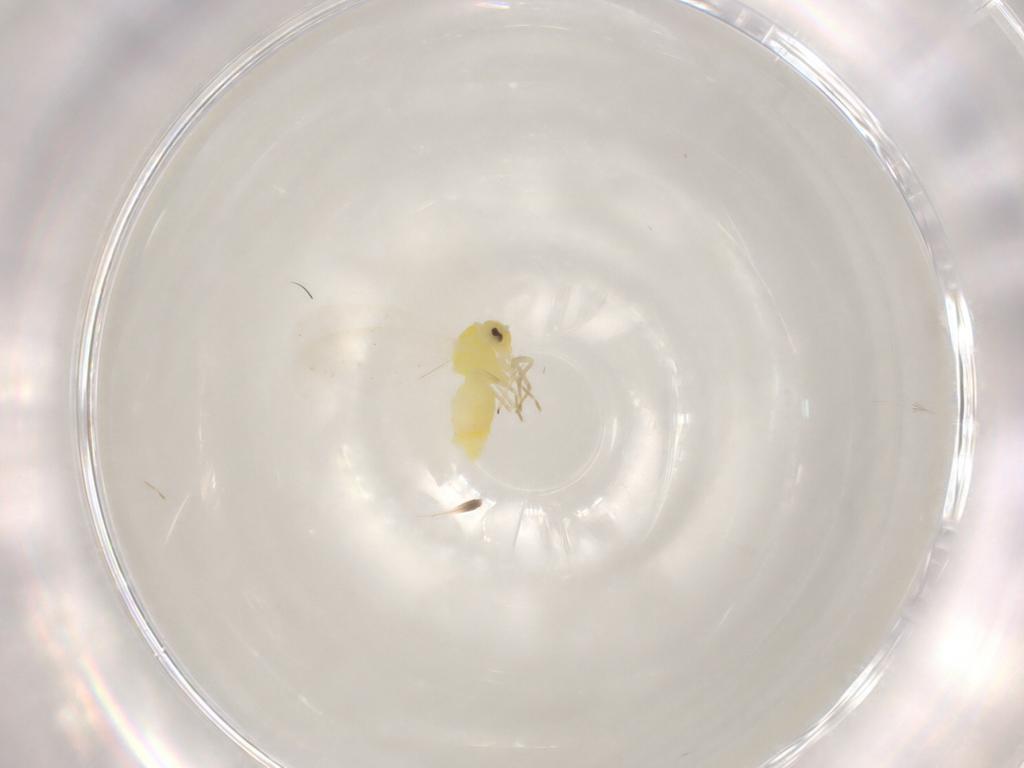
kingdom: Animalia
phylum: Arthropoda
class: Insecta
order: Hemiptera
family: Aleyrodidae
